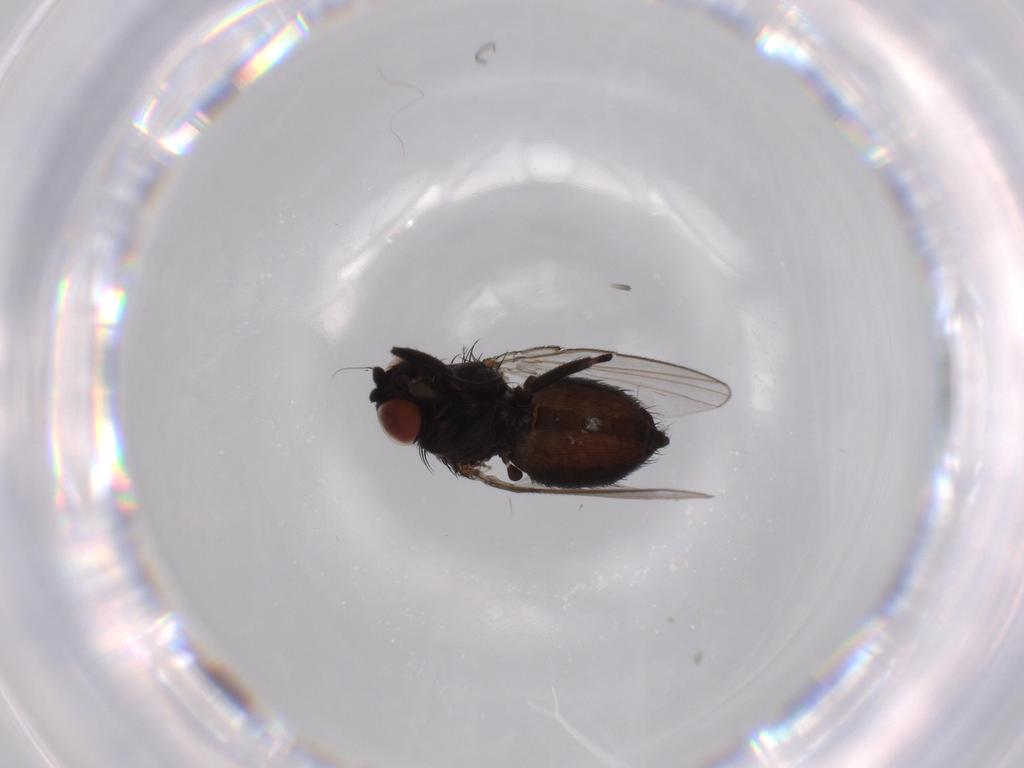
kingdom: Animalia
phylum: Arthropoda
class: Insecta
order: Diptera
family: Milichiidae
